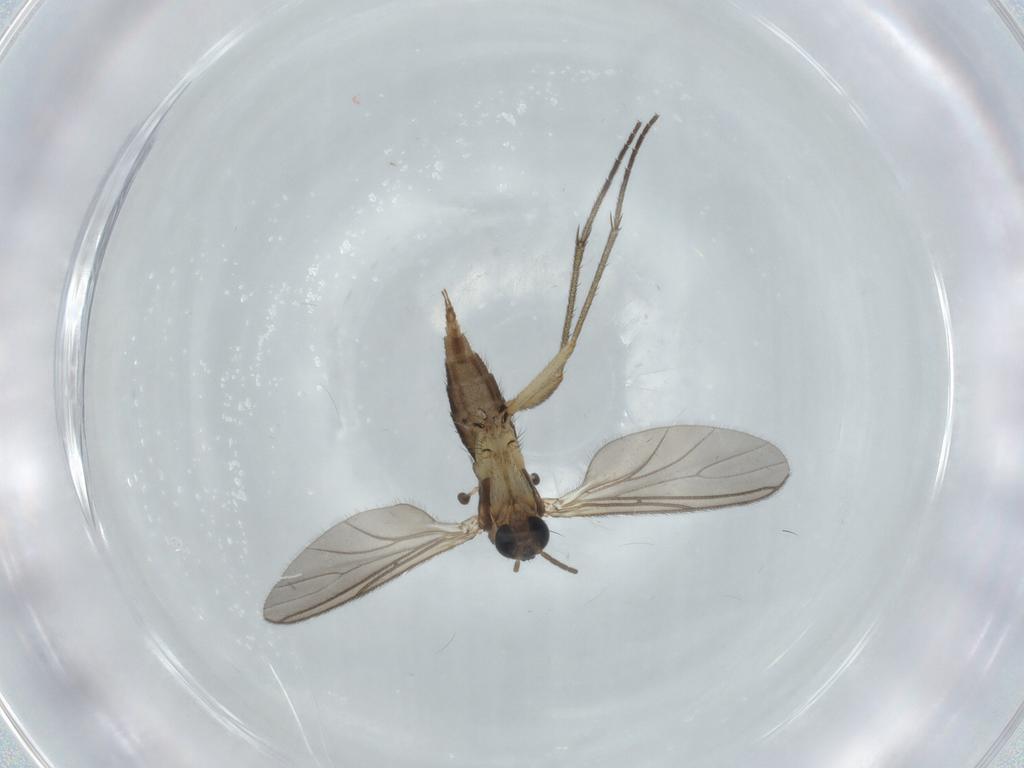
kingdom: Animalia
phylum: Arthropoda
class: Insecta
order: Diptera
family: Sciaridae
